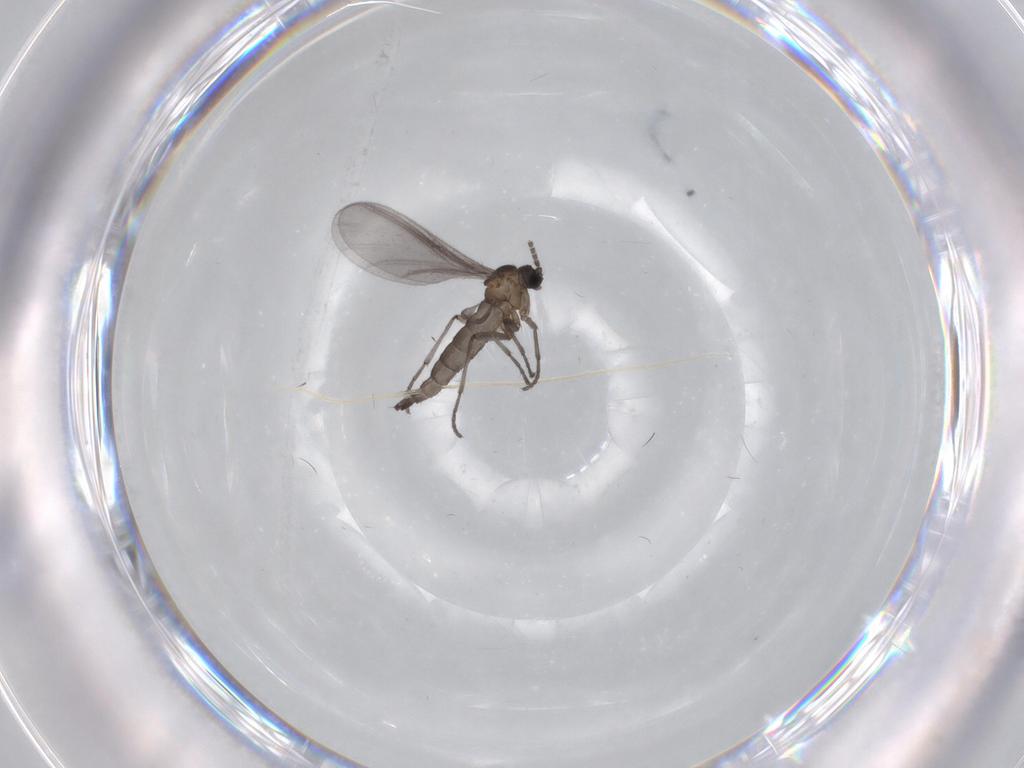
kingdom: Animalia
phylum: Arthropoda
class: Insecta
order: Diptera
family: Sciaridae
